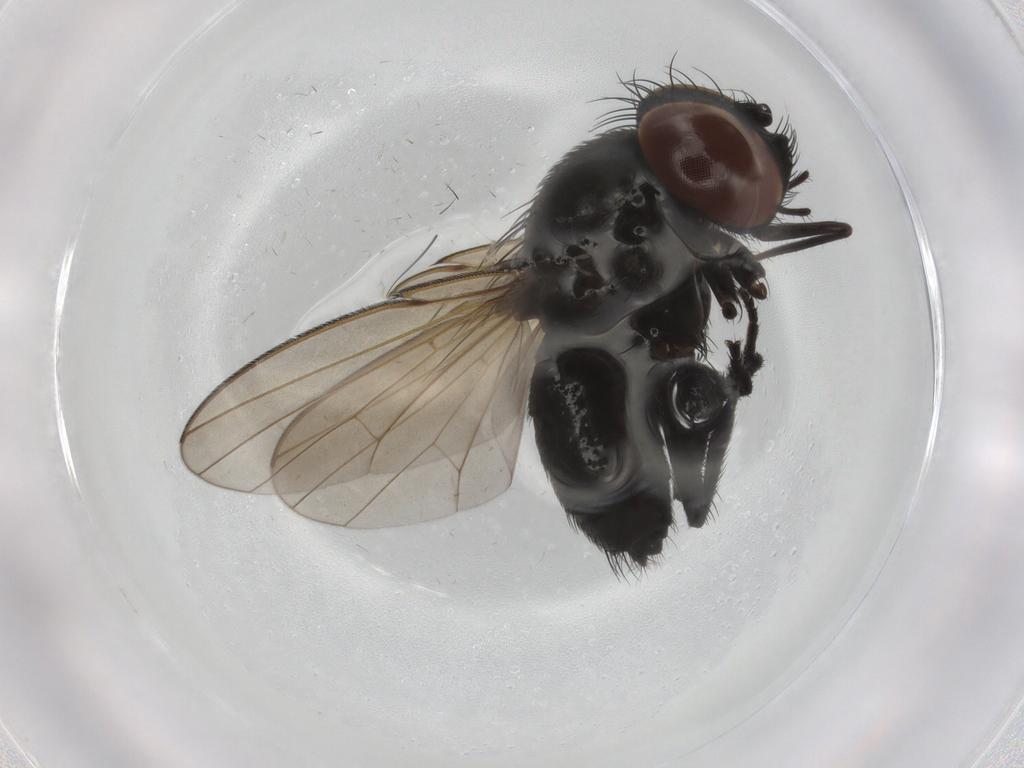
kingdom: Animalia
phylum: Arthropoda
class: Insecta
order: Diptera
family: Milichiidae
